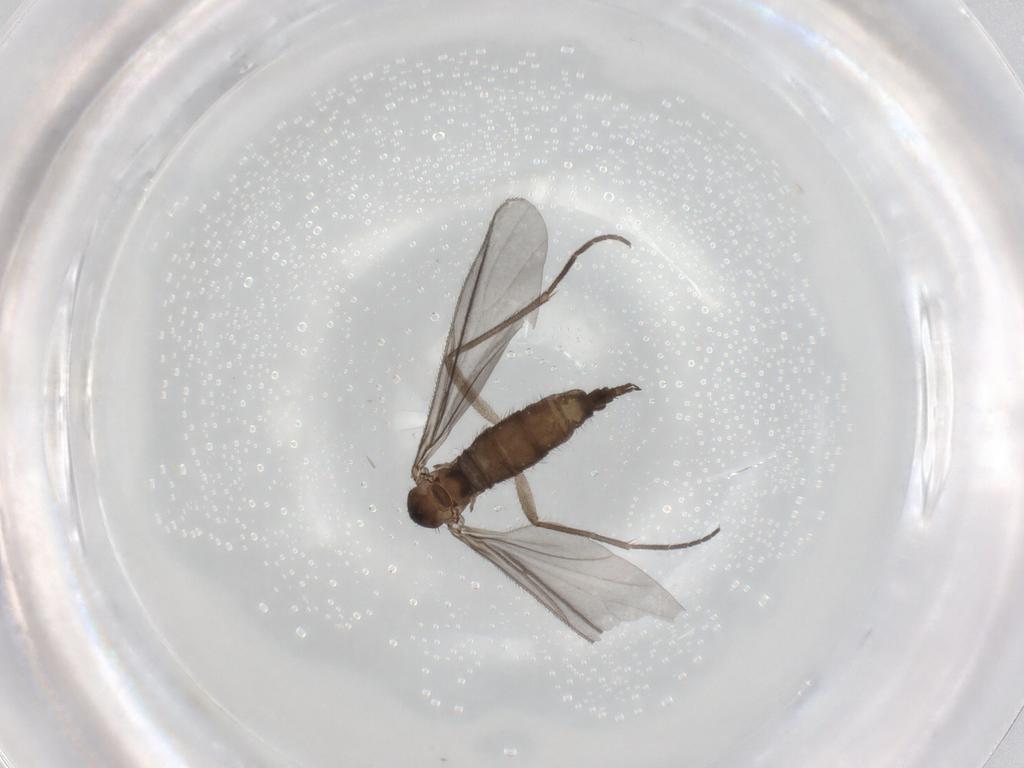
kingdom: Animalia
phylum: Arthropoda
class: Insecta
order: Diptera
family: Sciaridae
